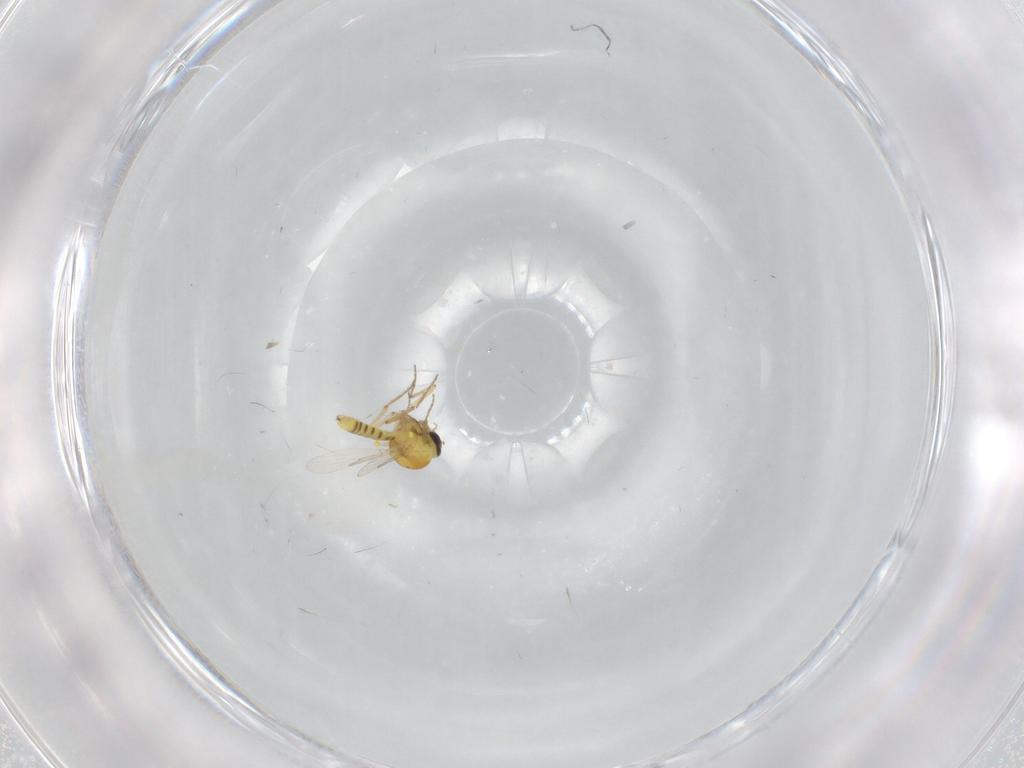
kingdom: Animalia
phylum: Arthropoda
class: Insecta
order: Diptera
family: Ceratopogonidae
